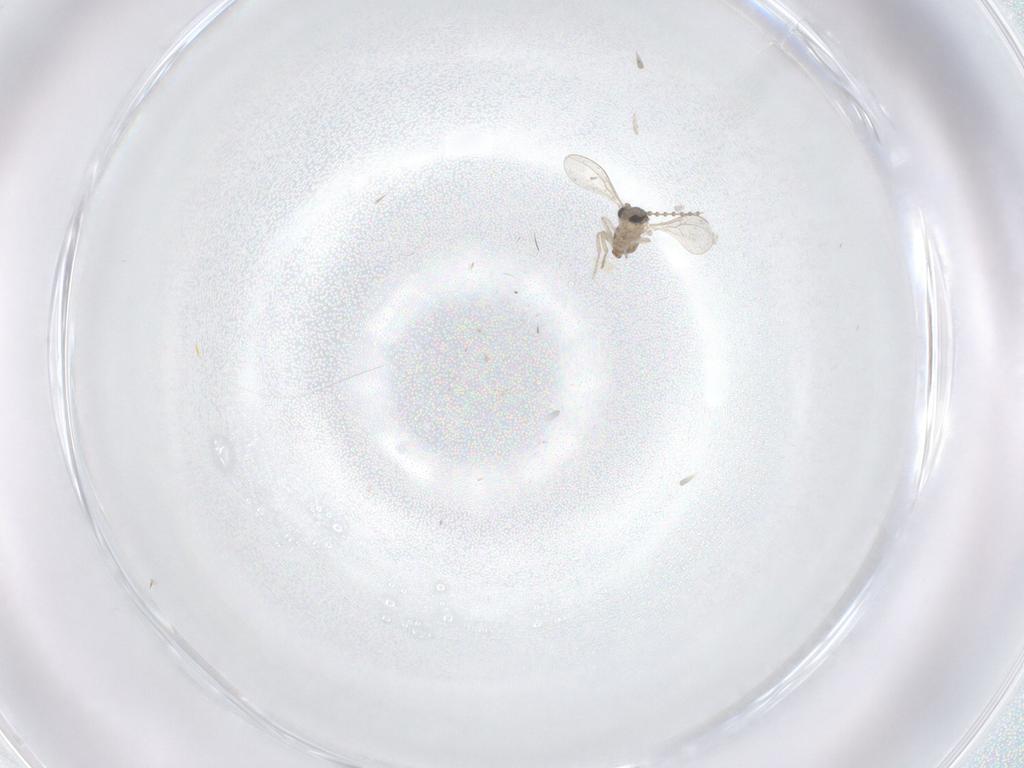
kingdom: Animalia
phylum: Arthropoda
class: Insecta
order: Diptera
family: Cecidomyiidae
